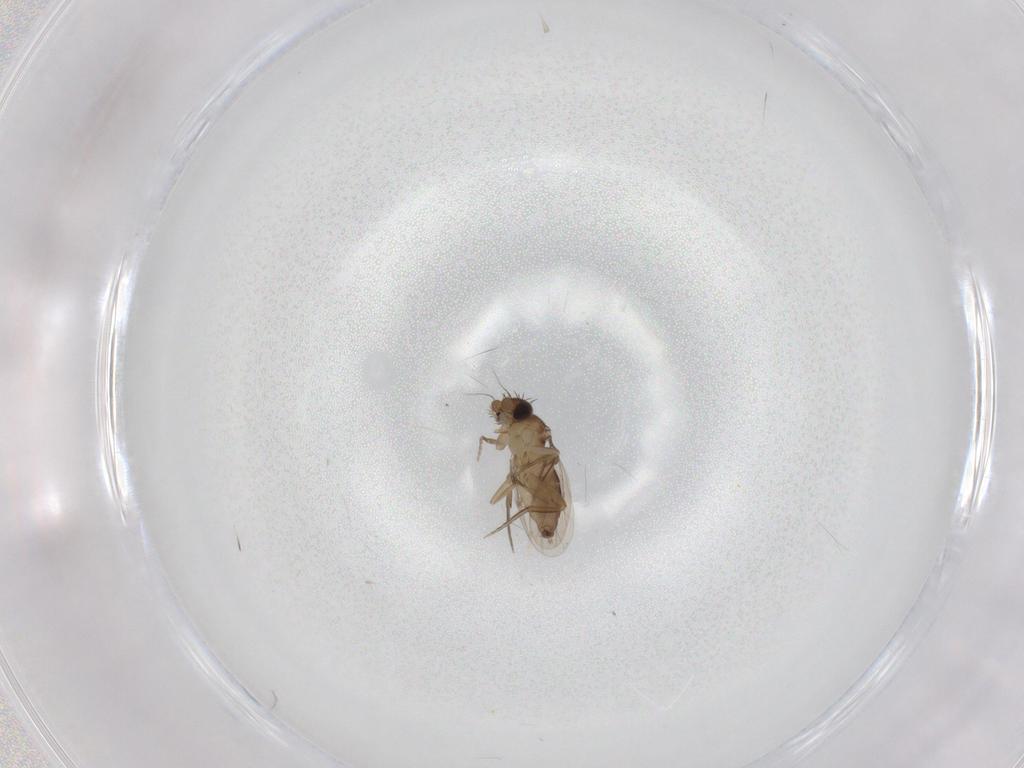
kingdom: Animalia
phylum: Arthropoda
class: Insecta
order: Diptera
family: Phoridae
